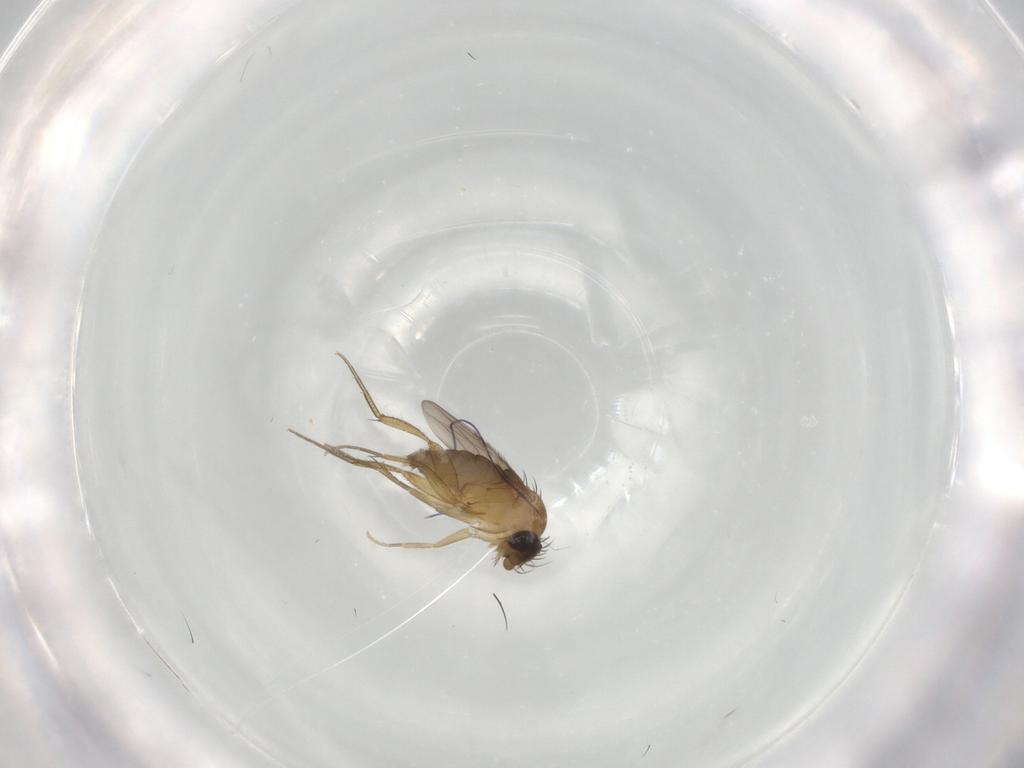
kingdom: Animalia
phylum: Arthropoda
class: Insecta
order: Diptera
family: Phoridae
